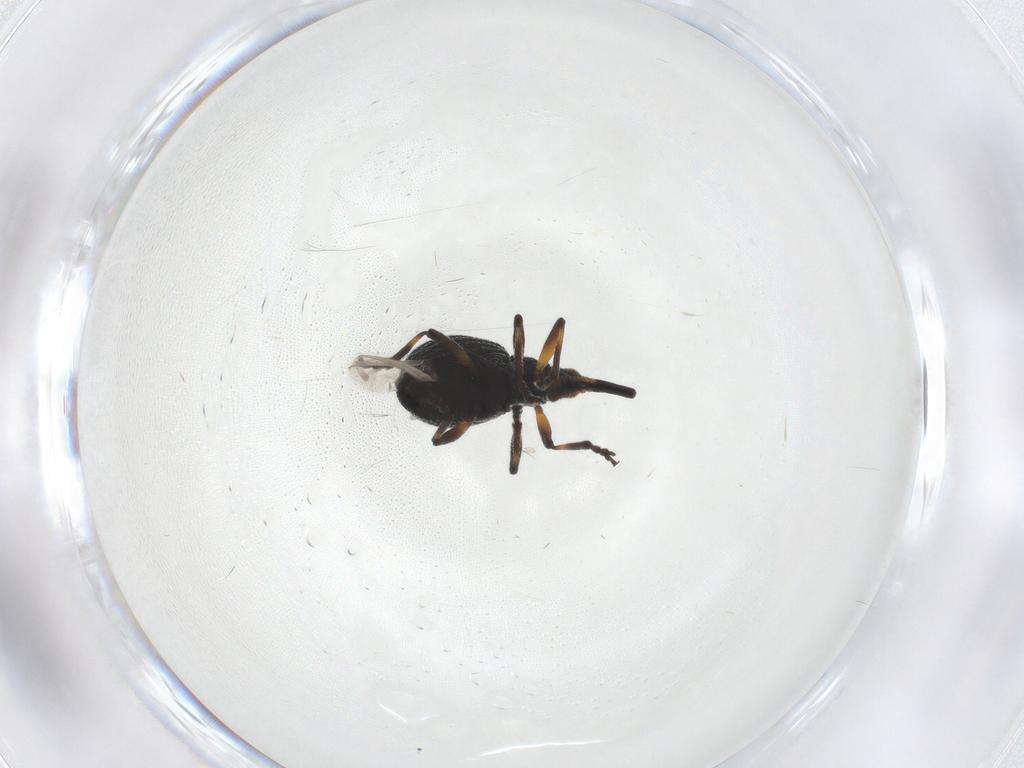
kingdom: Animalia
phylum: Arthropoda
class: Insecta
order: Coleoptera
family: Brentidae
